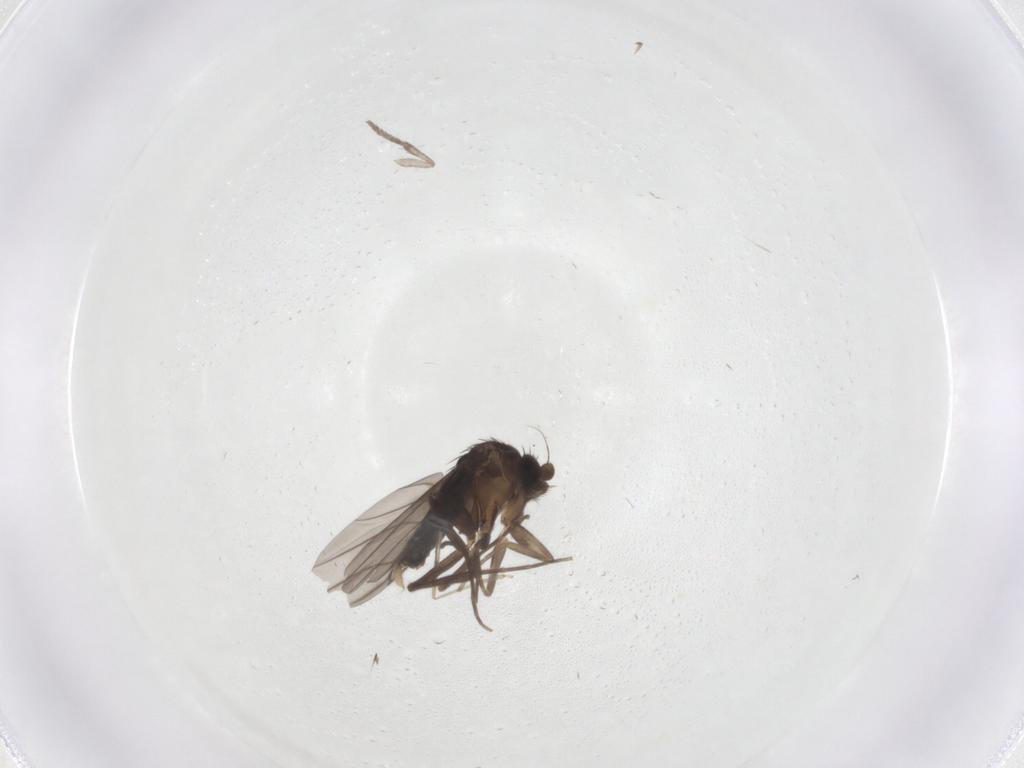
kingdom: Animalia
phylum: Arthropoda
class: Insecta
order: Diptera
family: Psychodidae
